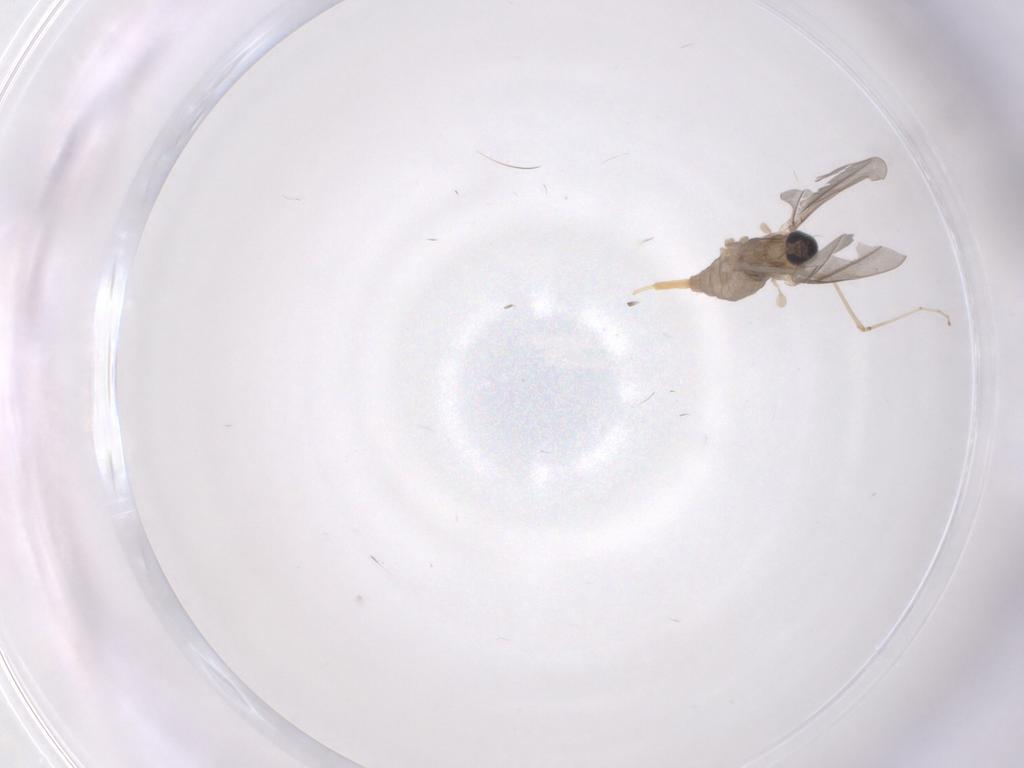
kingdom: Animalia
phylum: Arthropoda
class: Insecta
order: Diptera
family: Cecidomyiidae
